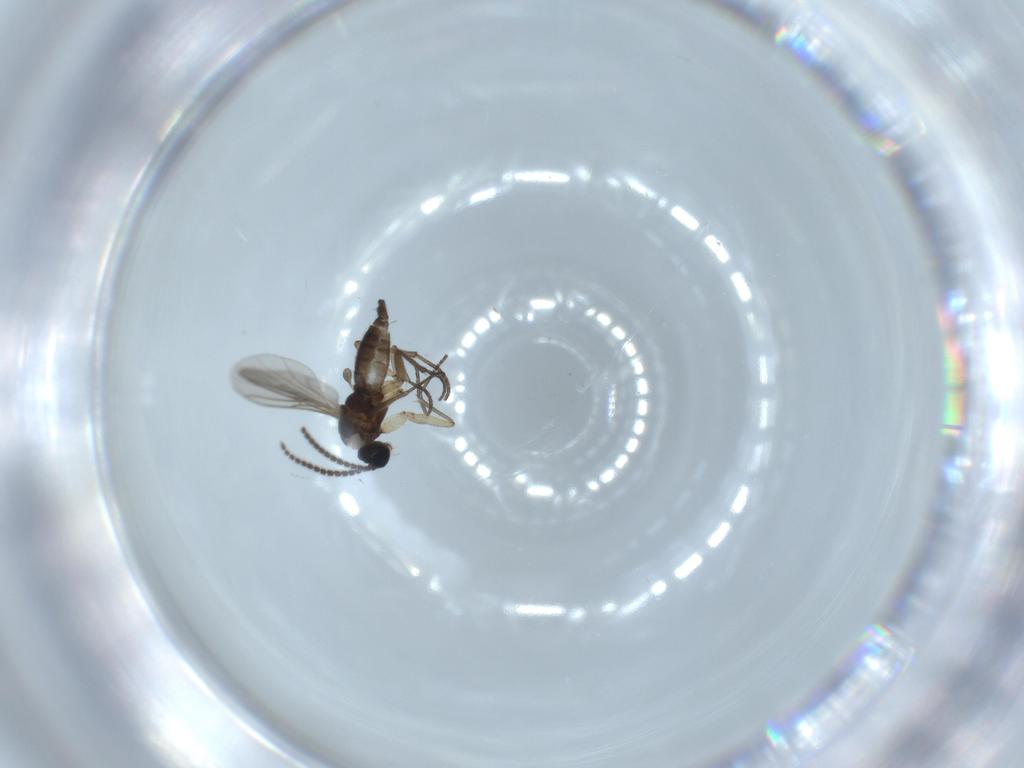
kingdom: Animalia
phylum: Arthropoda
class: Insecta
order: Diptera
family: Sciaridae
